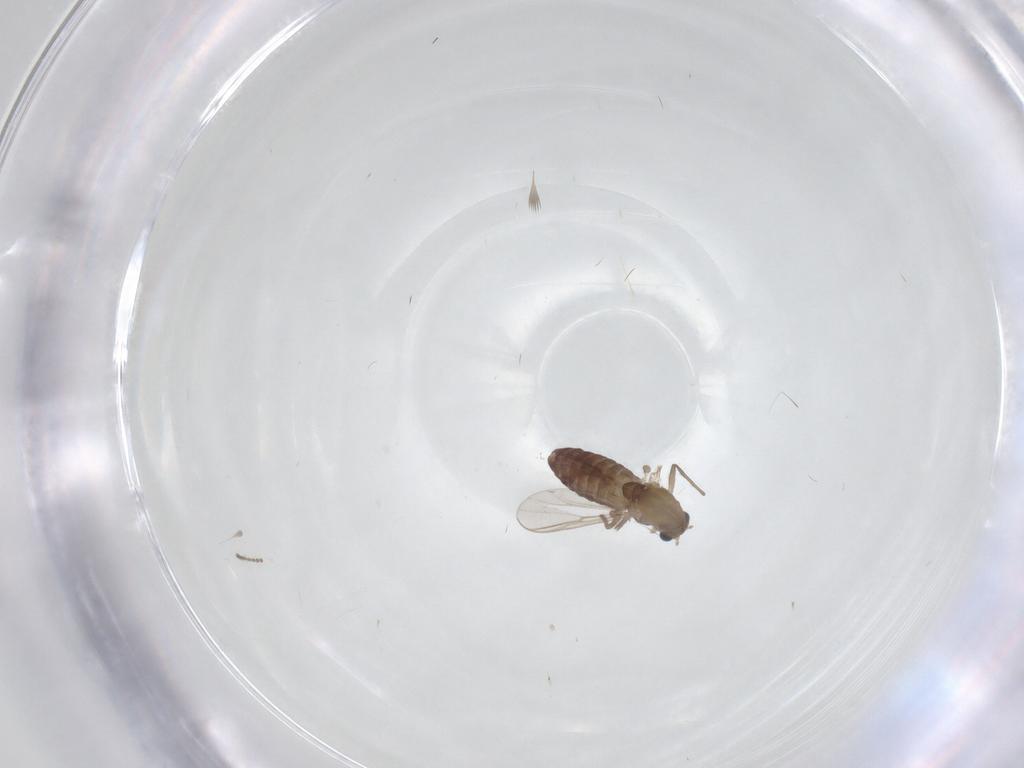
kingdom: Animalia
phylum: Arthropoda
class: Insecta
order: Diptera
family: Chironomidae
